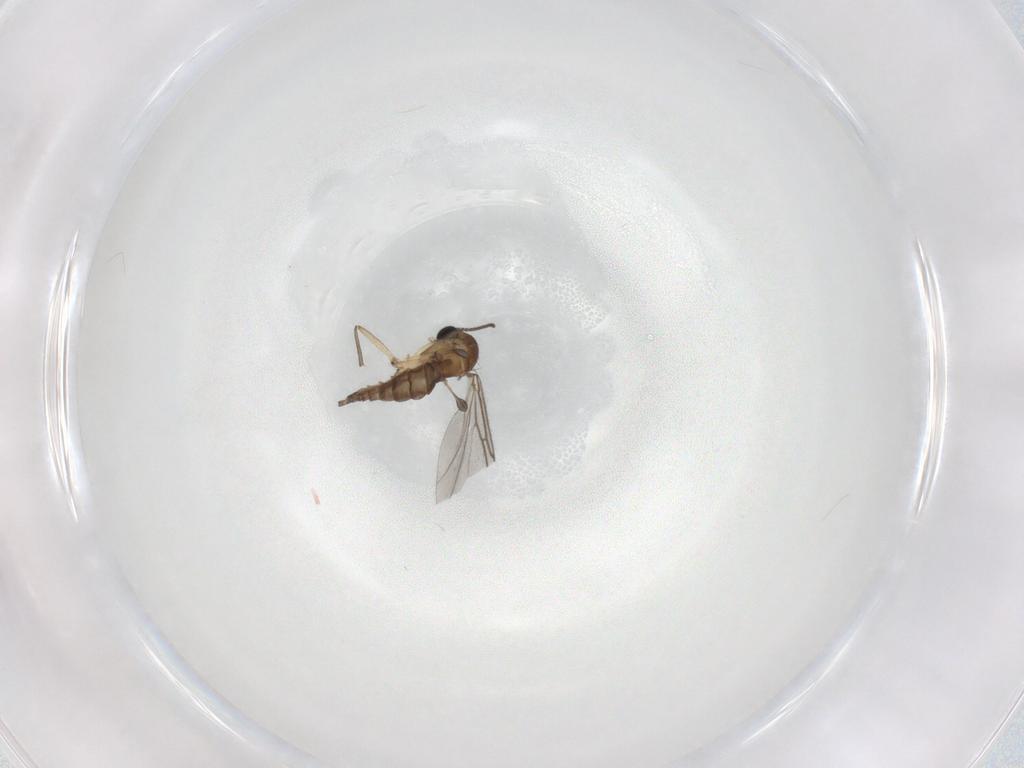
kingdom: Animalia
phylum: Arthropoda
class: Insecta
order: Diptera
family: Sciaridae
